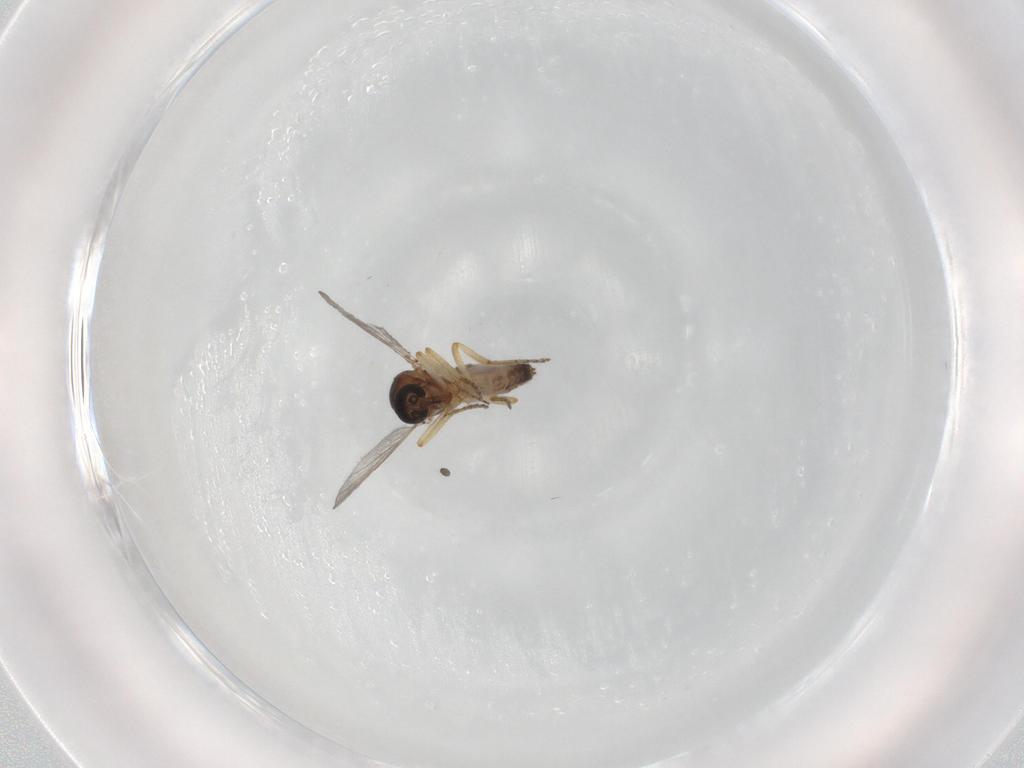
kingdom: Animalia
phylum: Arthropoda
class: Insecta
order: Diptera
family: Ceratopogonidae
